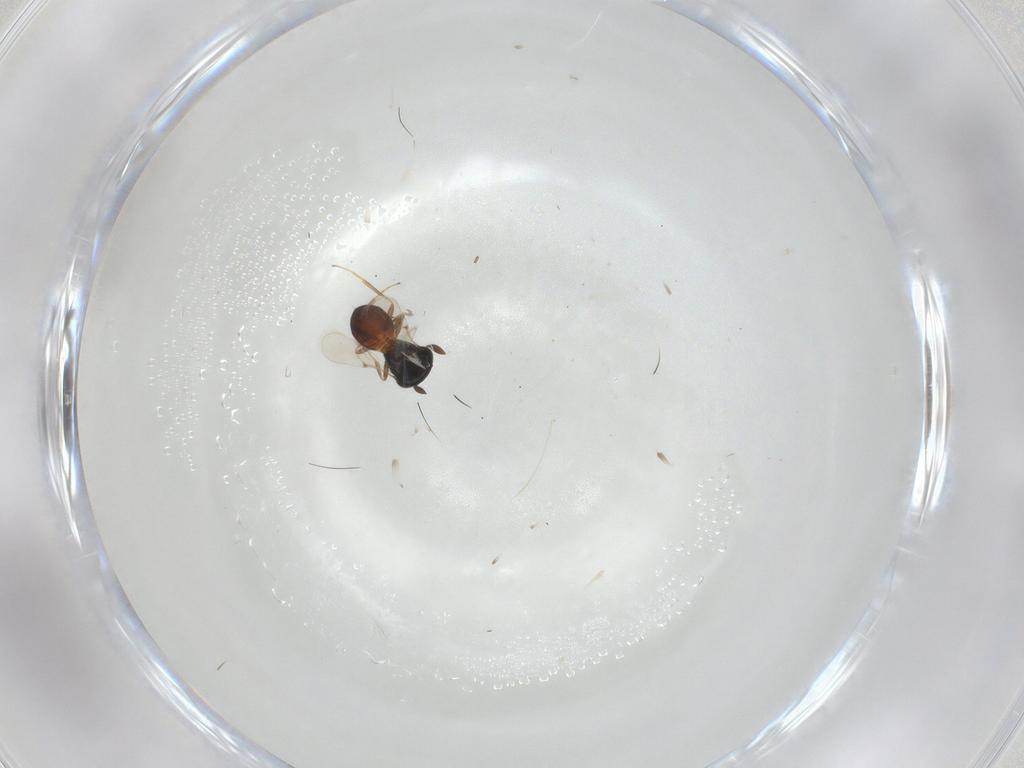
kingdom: Animalia
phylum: Arthropoda
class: Insecta
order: Hymenoptera
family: Scelionidae
